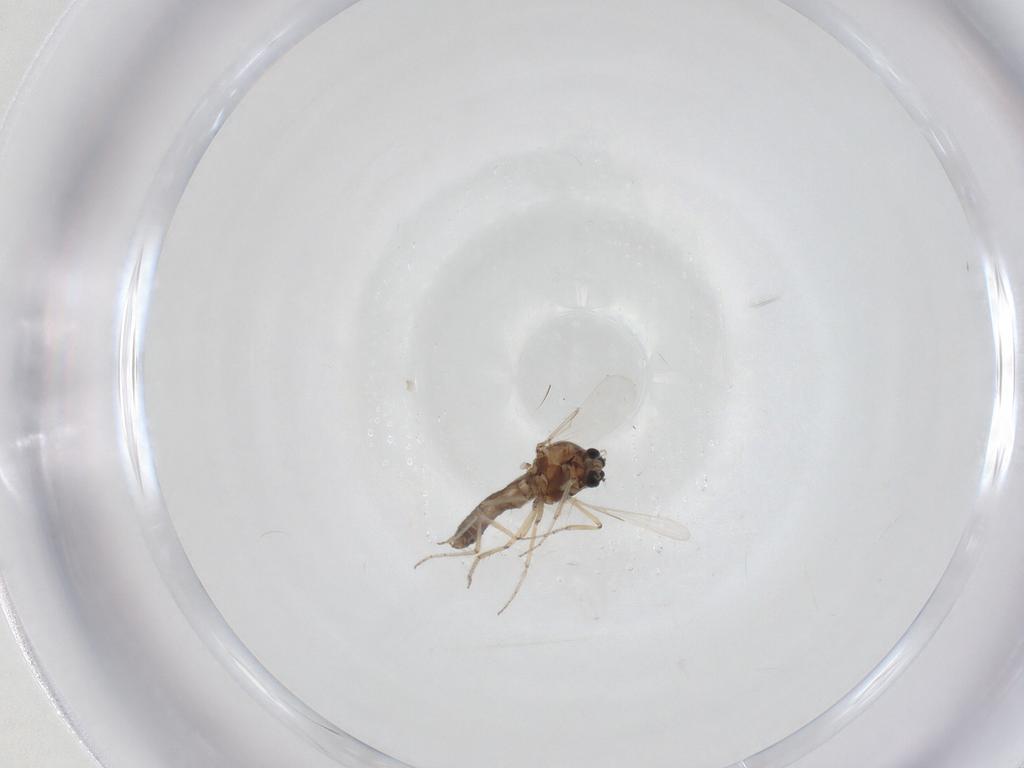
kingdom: Animalia
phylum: Arthropoda
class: Insecta
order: Diptera
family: Ceratopogonidae
